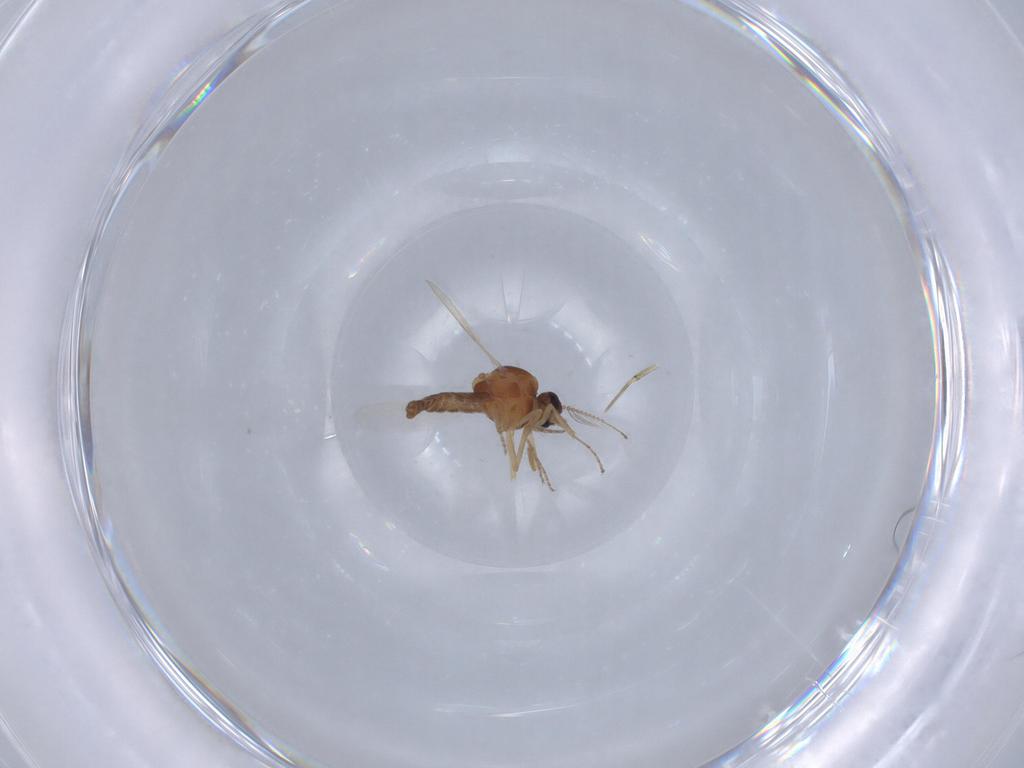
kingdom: Animalia
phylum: Arthropoda
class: Insecta
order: Diptera
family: Ceratopogonidae
